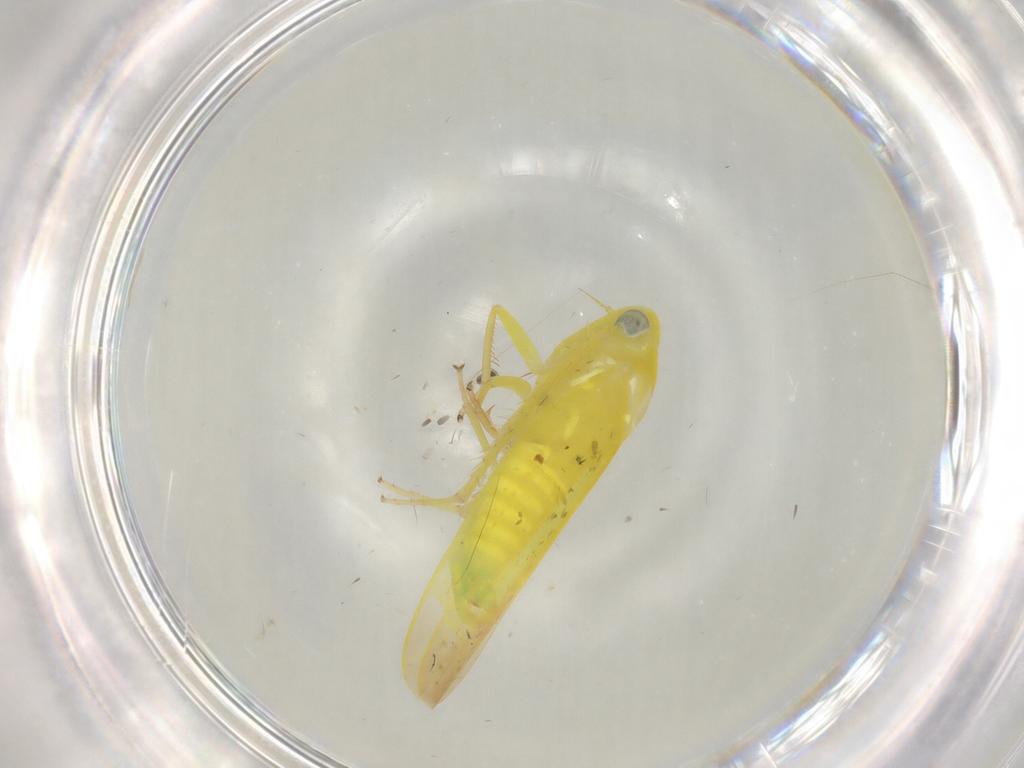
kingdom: Animalia
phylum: Arthropoda
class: Insecta
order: Hemiptera
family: Cicadellidae
